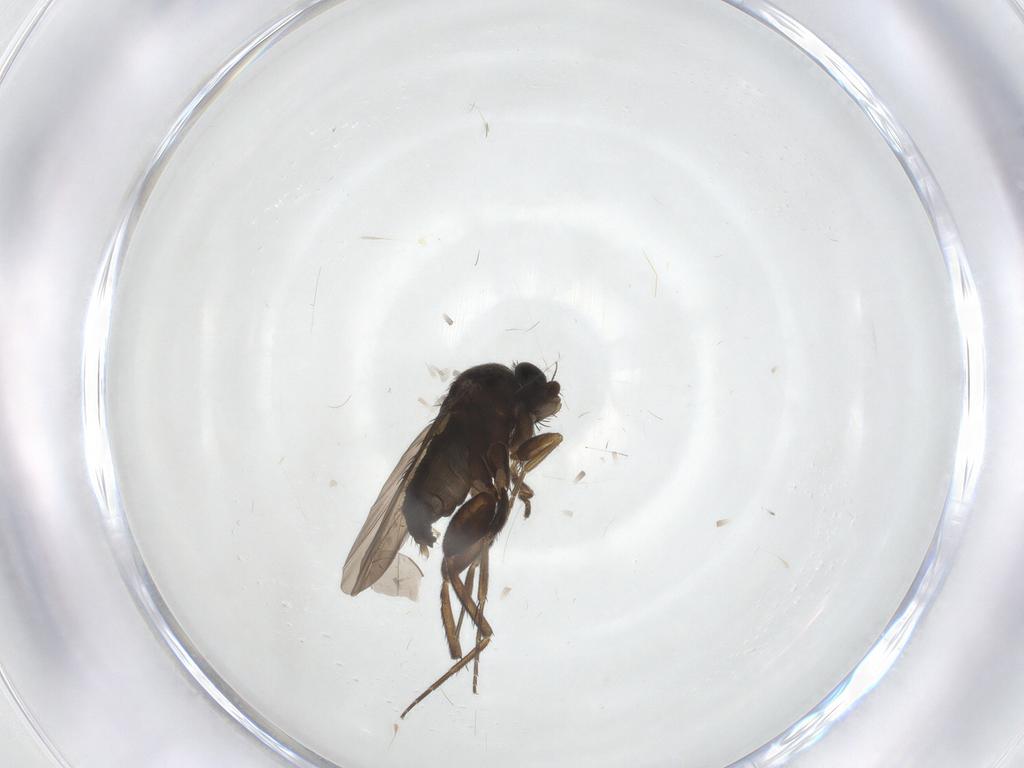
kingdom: Animalia
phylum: Arthropoda
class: Insecta
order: Diptera
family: Phoridae
